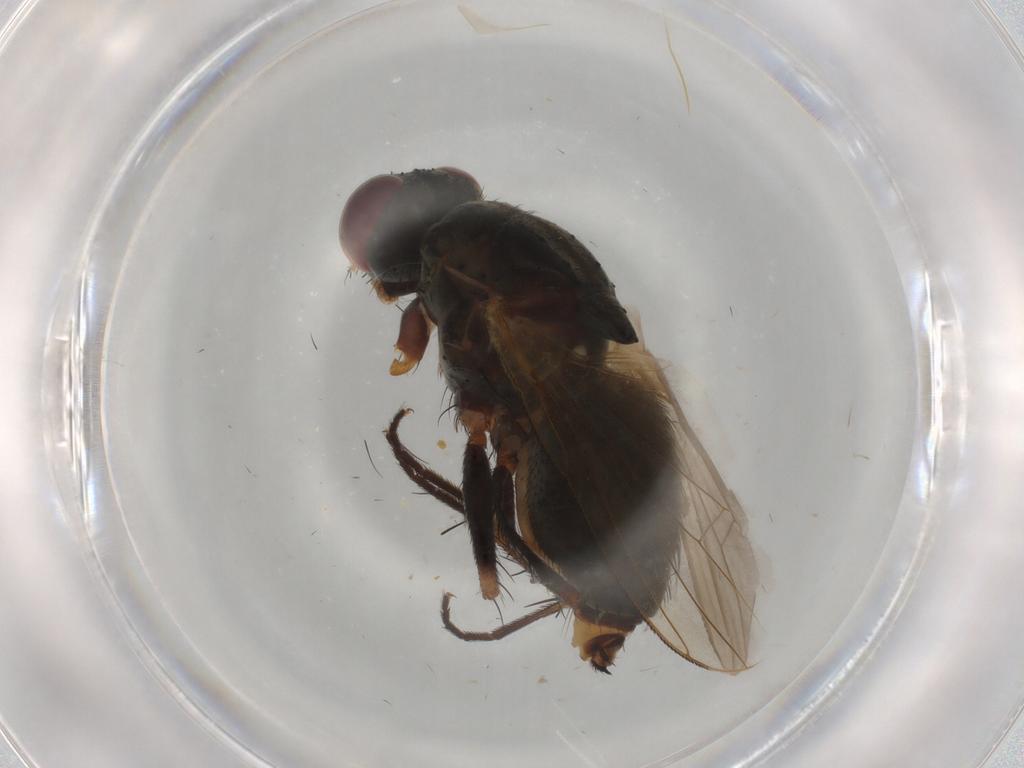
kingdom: Animalia
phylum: Arthropoda
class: Insecta
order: Diptera
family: Muscidae
